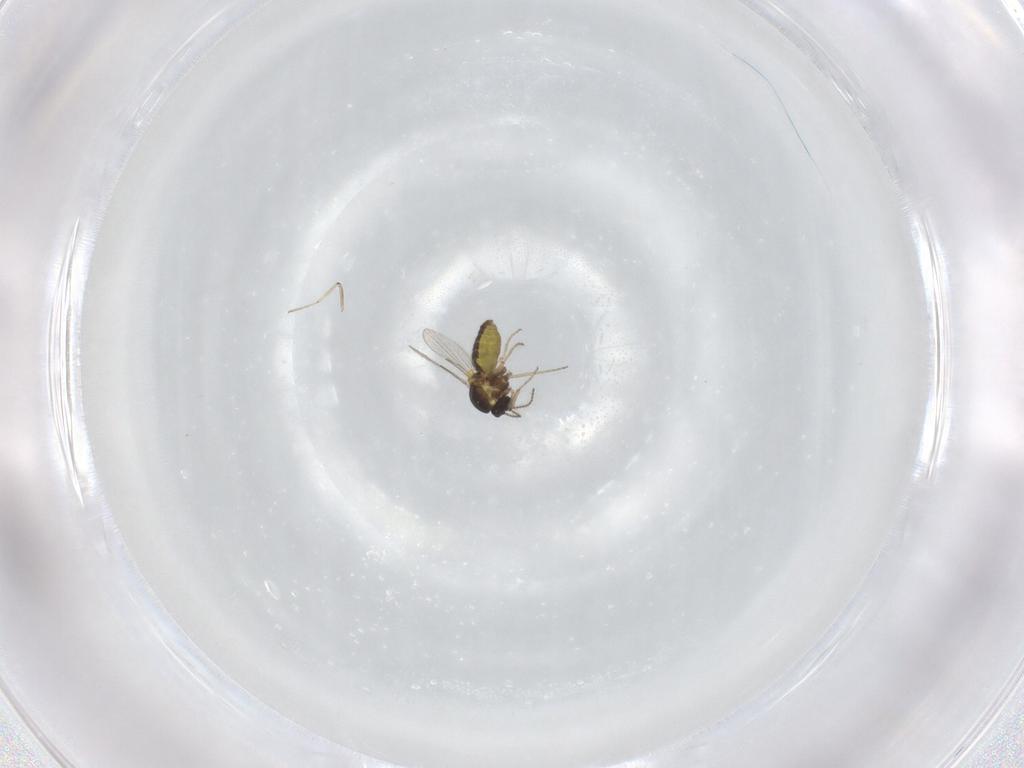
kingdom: Animalia
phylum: Arthropoda
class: Insecta
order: Diptera
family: Ceratopogonidae
